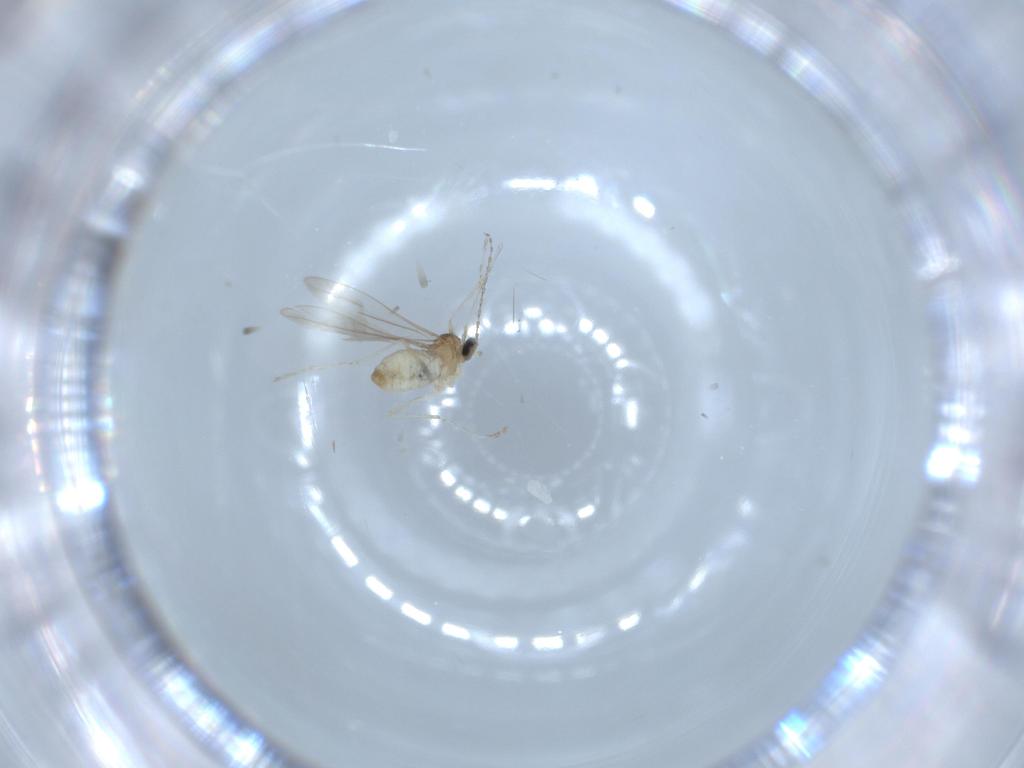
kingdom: Animalia
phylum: Arthropoda
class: Insecta
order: Diptera
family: Cecidomyiidae
